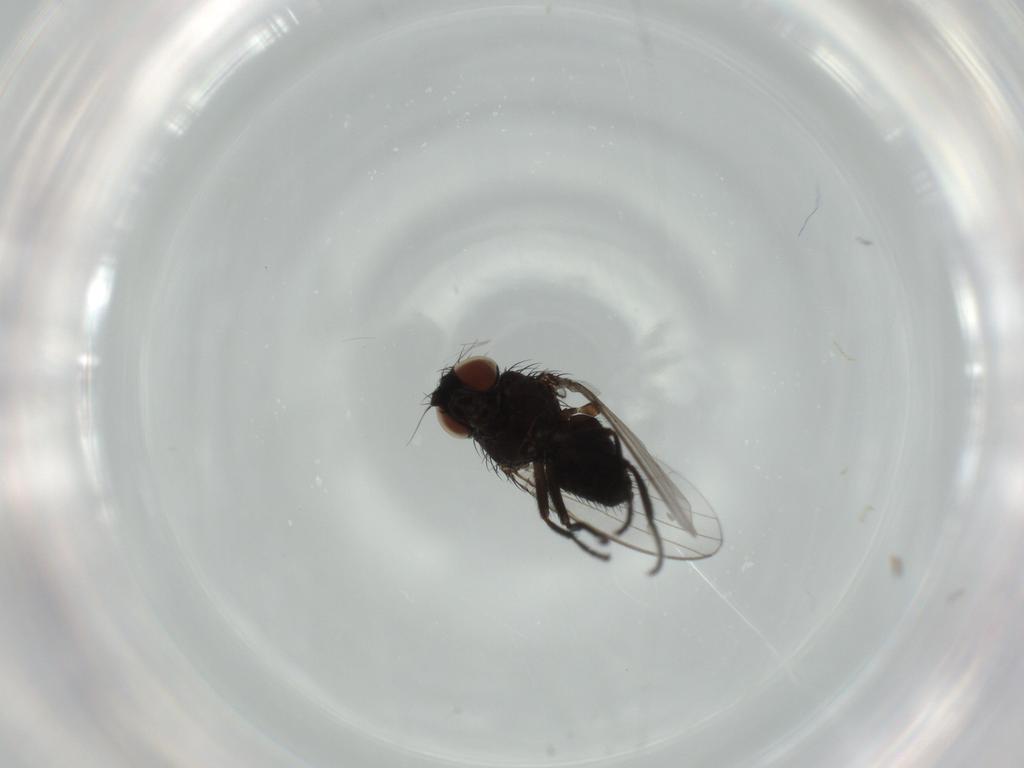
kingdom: Animalia
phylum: Arthropoda
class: Insecta
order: Diptera
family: Milichiidae
